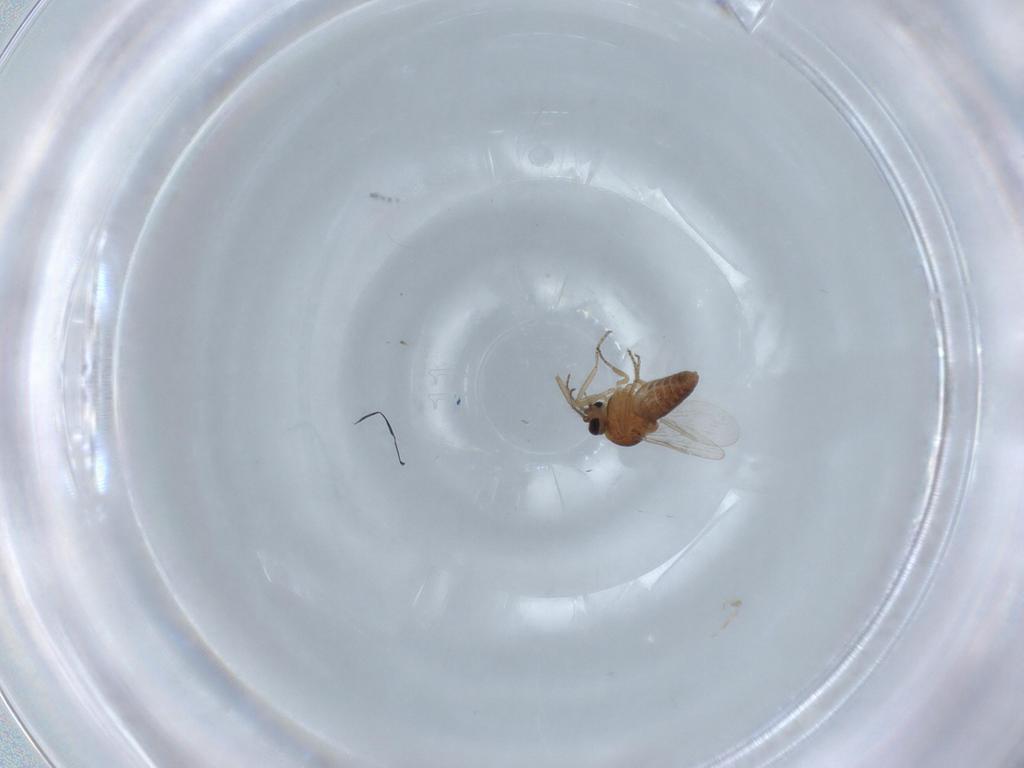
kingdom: Animalia
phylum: Arthropoda
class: Insecta
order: Diptera
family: Ceratopogonidae
